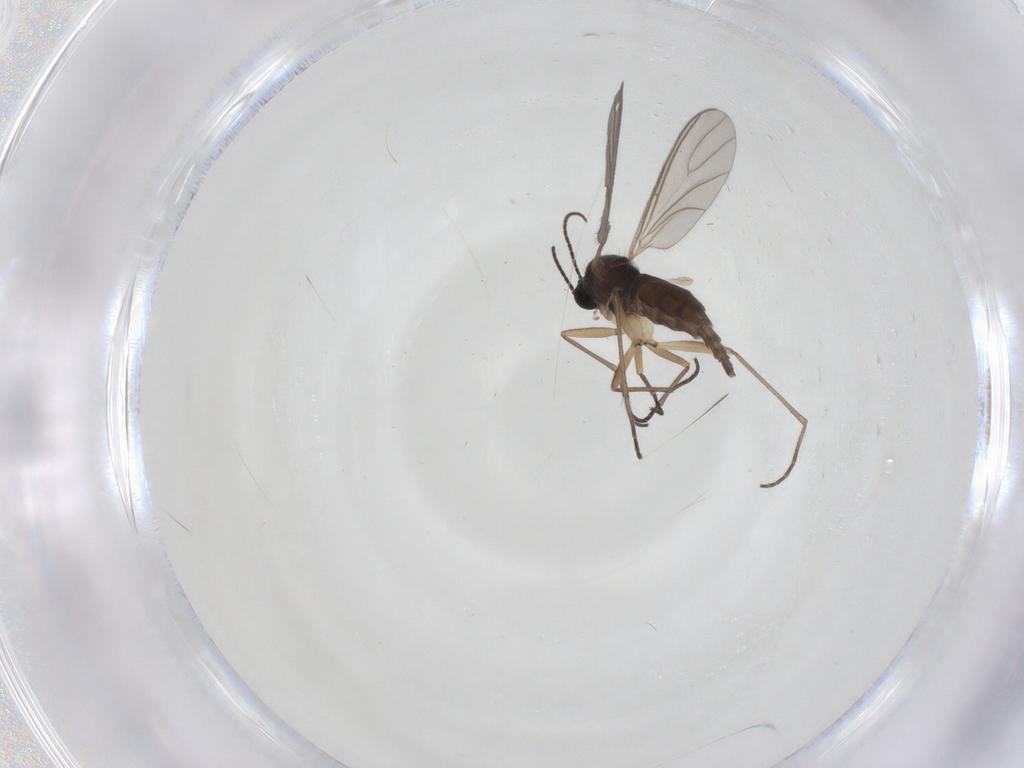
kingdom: Animalia
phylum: Arthropoda
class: Insecta
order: Diptera
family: Sciaridae
